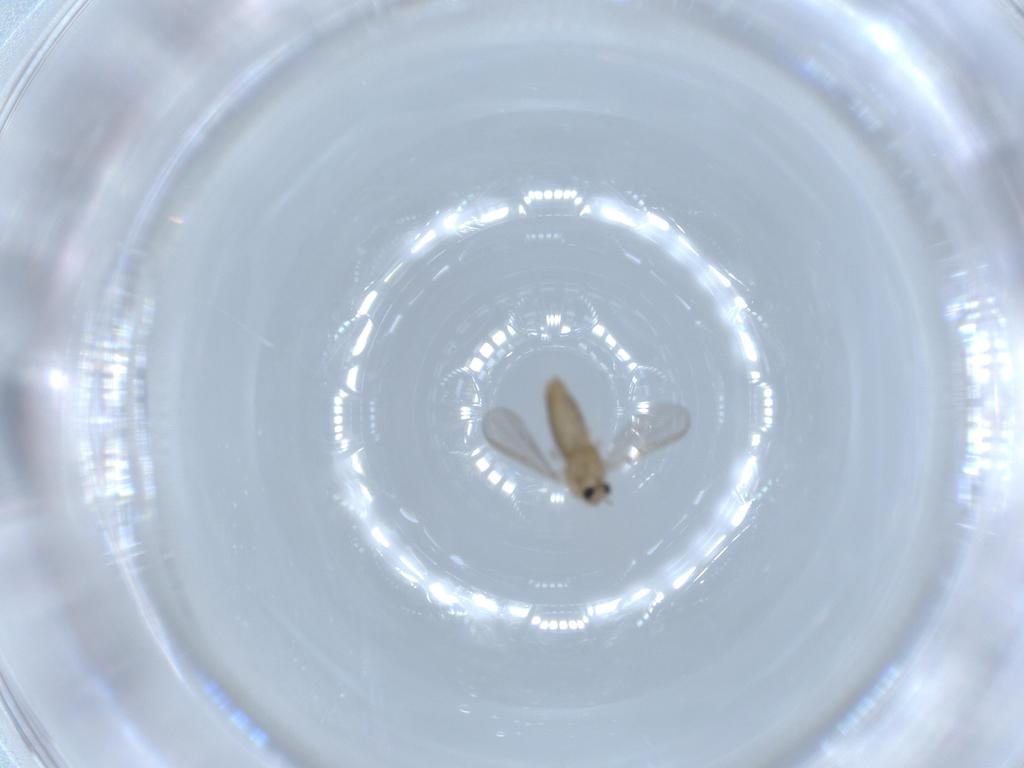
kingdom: Animalia
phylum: Arthropoda
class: Insecta
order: Diptera
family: Chironomidae
